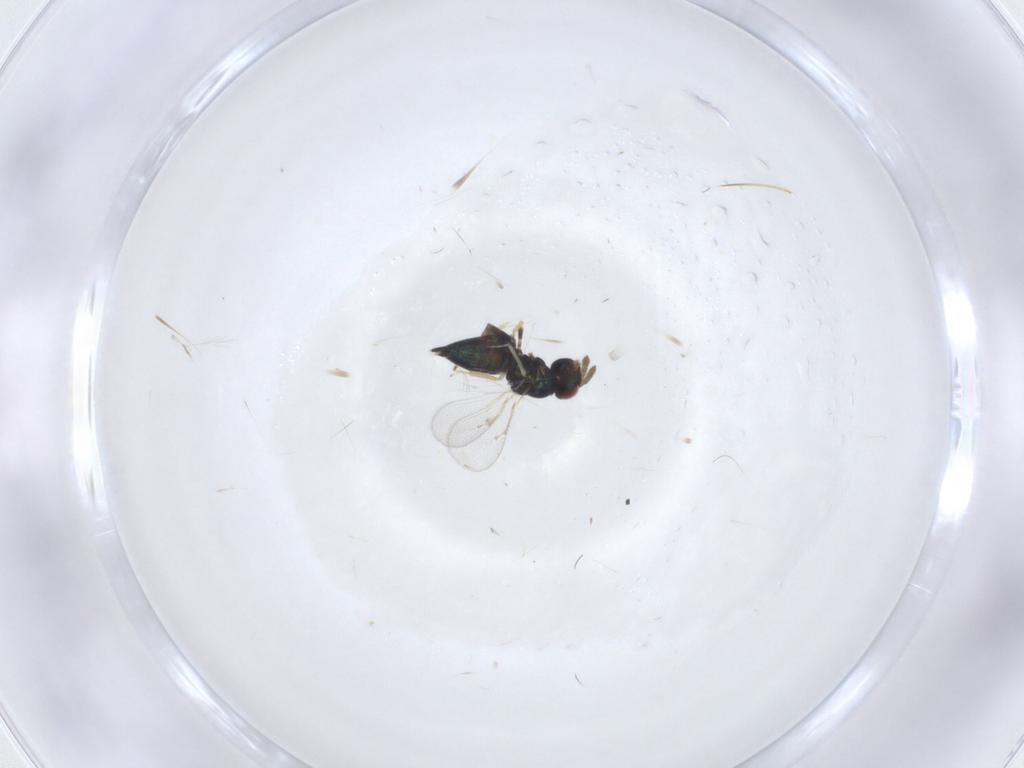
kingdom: Animalia
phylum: Arthropoda
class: Insecta
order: Hymenoptera
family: Eulophidae
